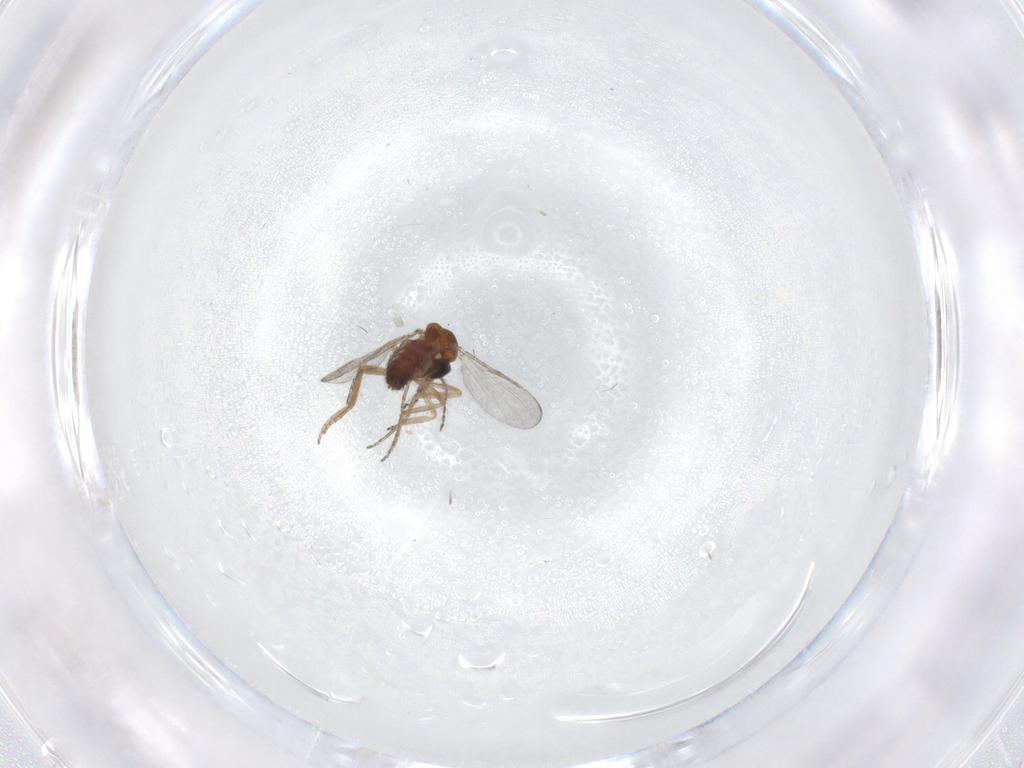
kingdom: Animalia
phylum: Arthropoda
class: Insecta
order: Diptera
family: Ceratopogonidae
